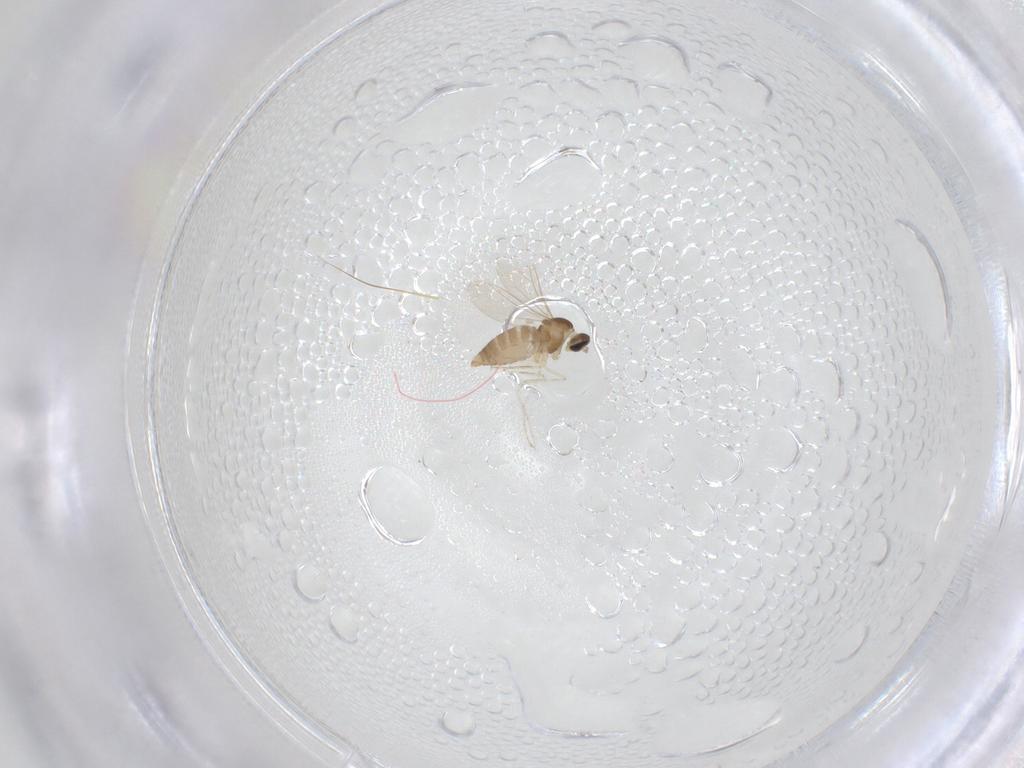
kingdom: Animalia
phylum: Arthropoda
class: Insecta
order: Diptera
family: Cecidomyiidae
